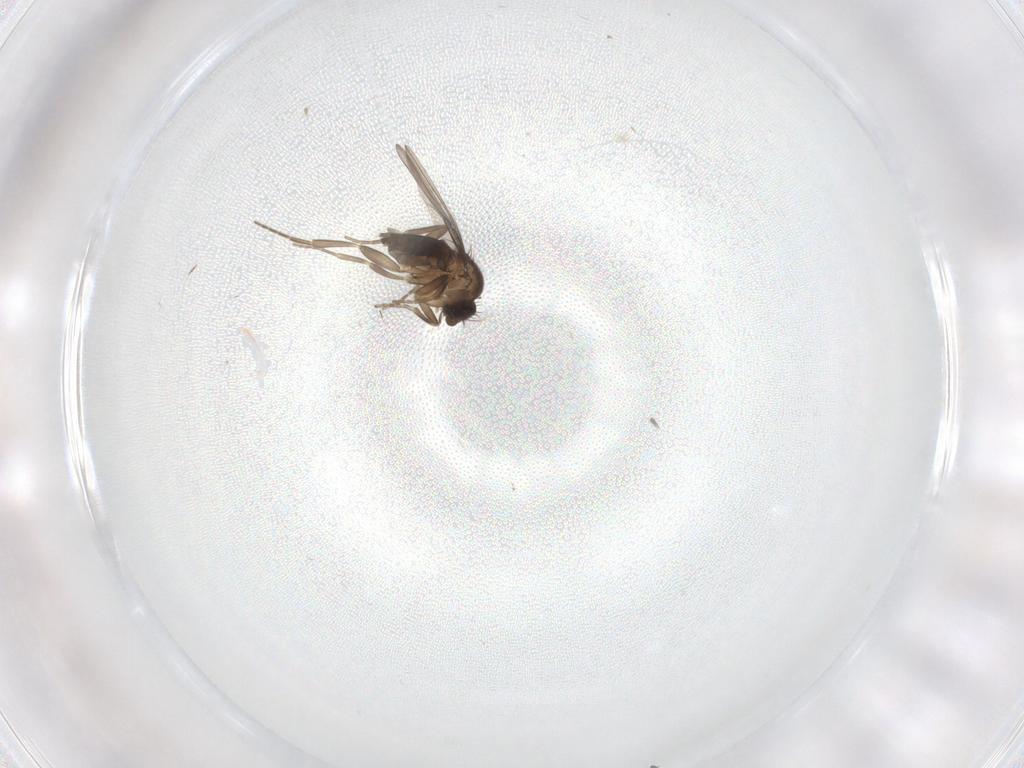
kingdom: Animalia
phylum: Arthropoda
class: Insecta
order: Diptera
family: Phoridae
